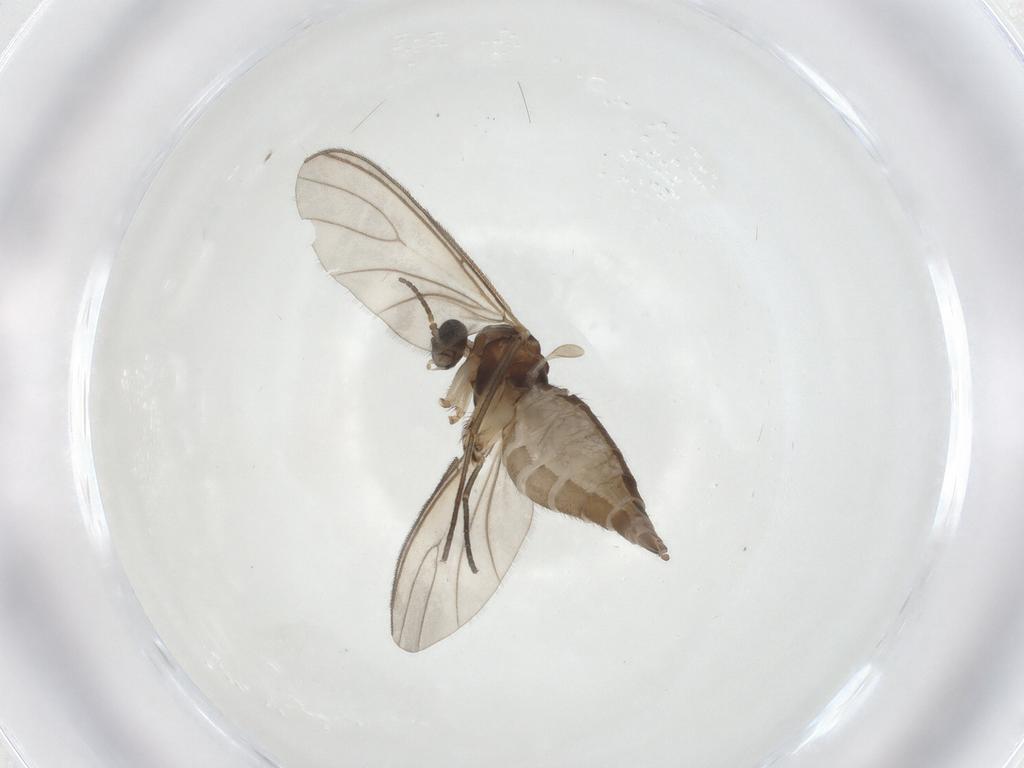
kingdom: Animalia
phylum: Arthropoda
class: Insecta
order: Diptera
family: Sciaridae
